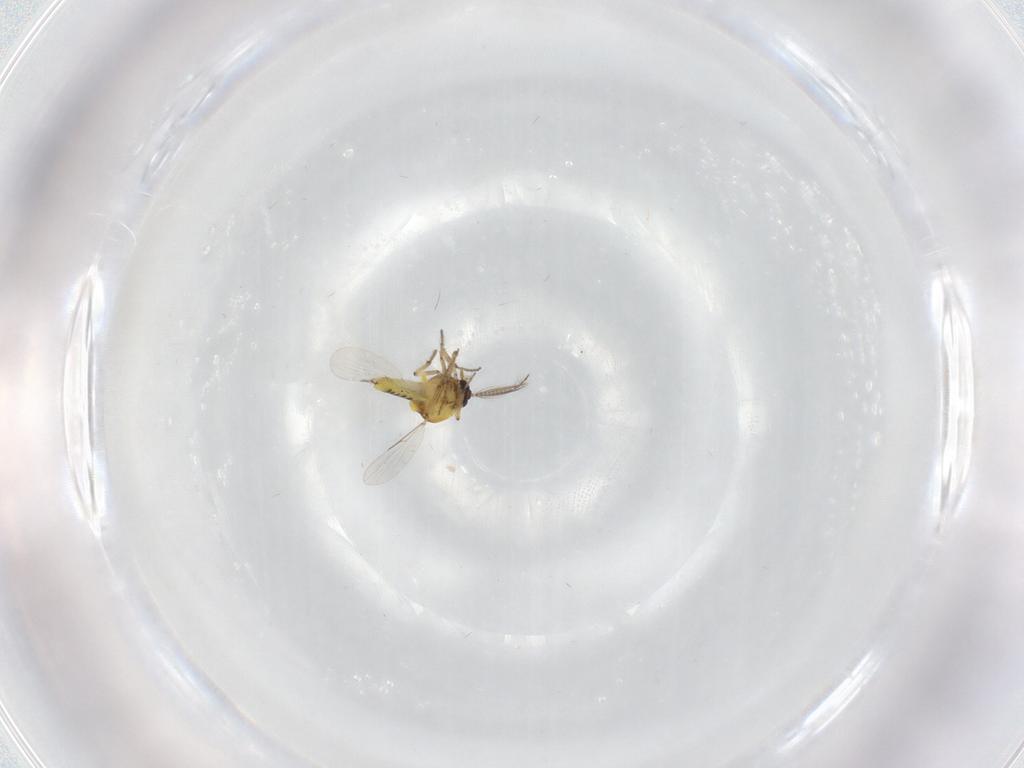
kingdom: Animalia
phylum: Arthropoda
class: Insecta
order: Diptera
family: Ceratopogonidae
